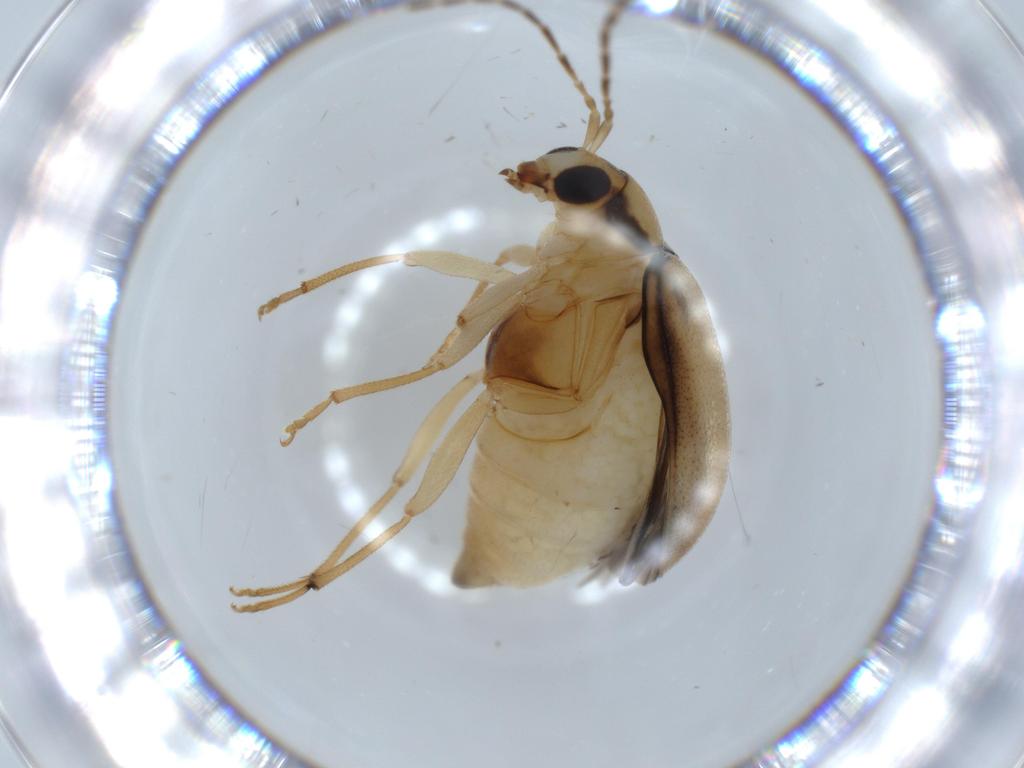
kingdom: Animalia
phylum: Arthropoda
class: Insecta
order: Coleoptera
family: Chrysomelidae
